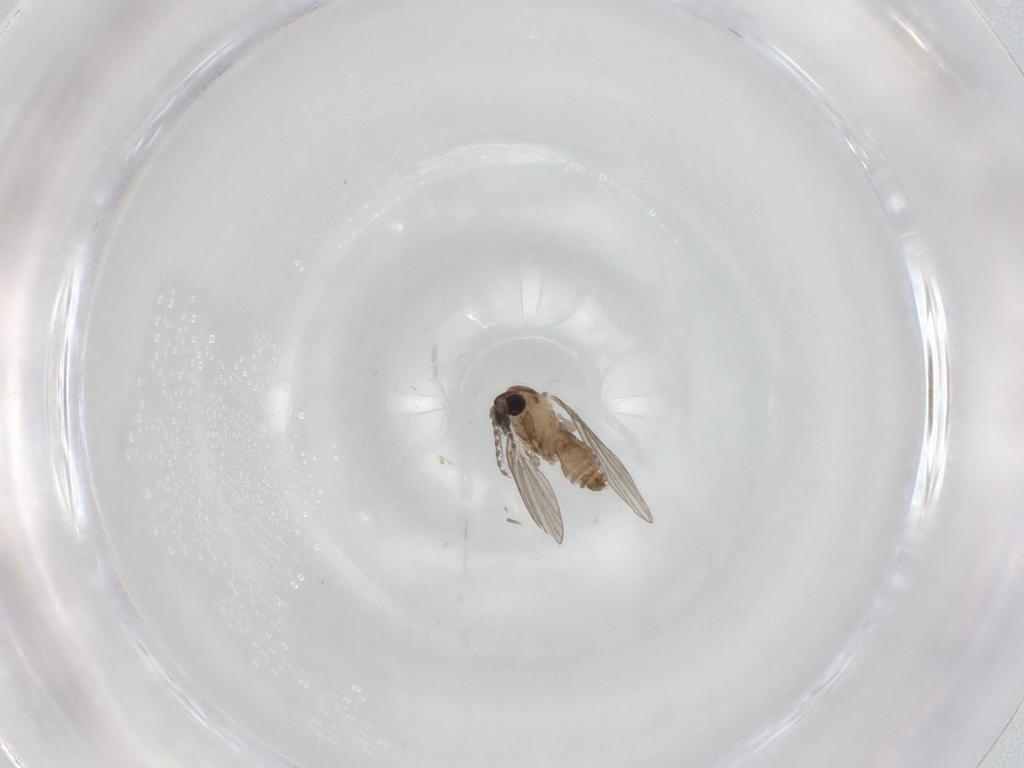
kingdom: Animalia
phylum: Arthropoda
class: Insecta
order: Diptera
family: Psychodidae
